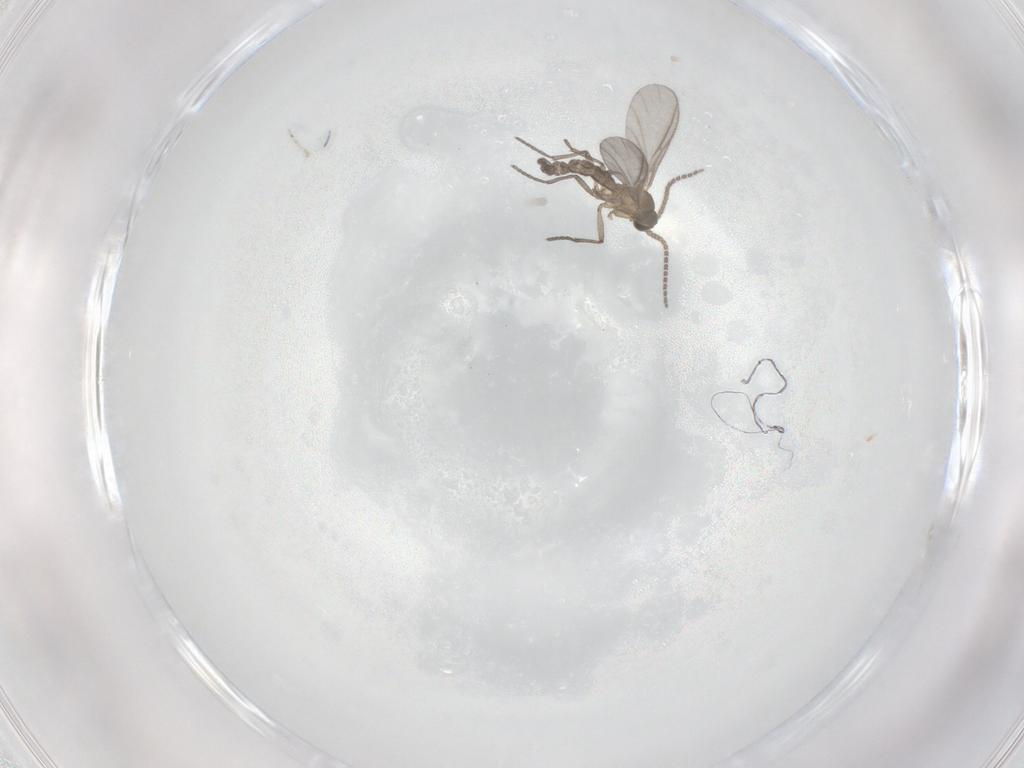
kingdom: Animalia
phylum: Arthropoda
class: Insecta
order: Diptera
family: Sciaridae
